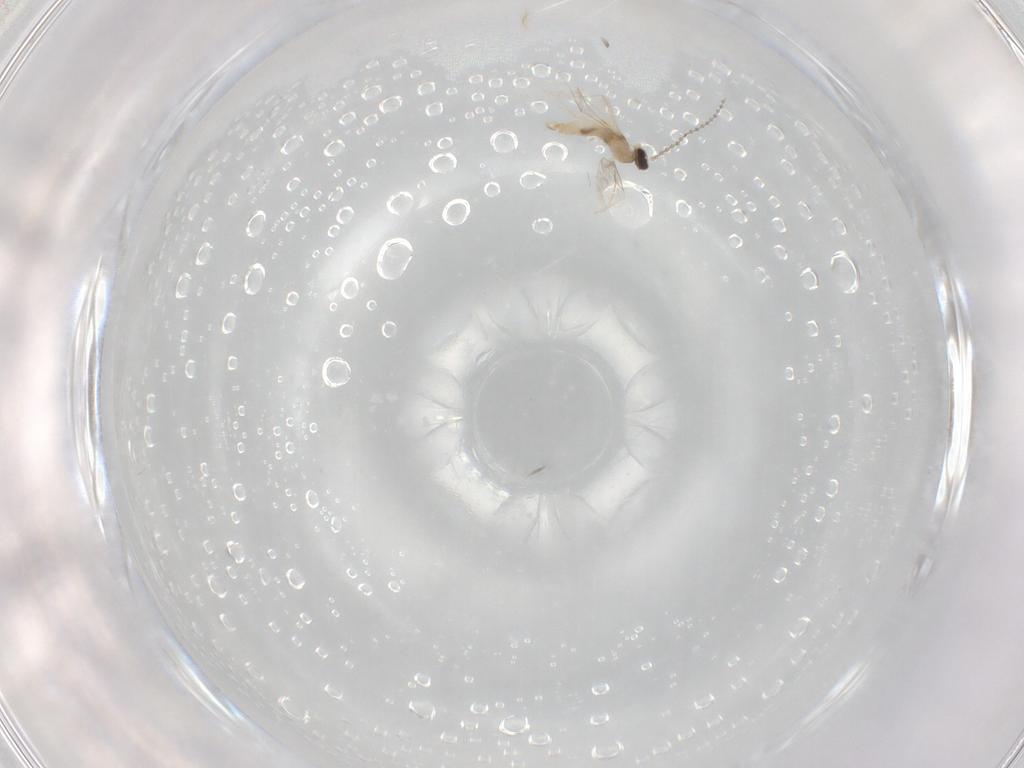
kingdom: Animalia
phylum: Arthropoda
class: Insecta
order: Diptera
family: Cecidomyiidae
